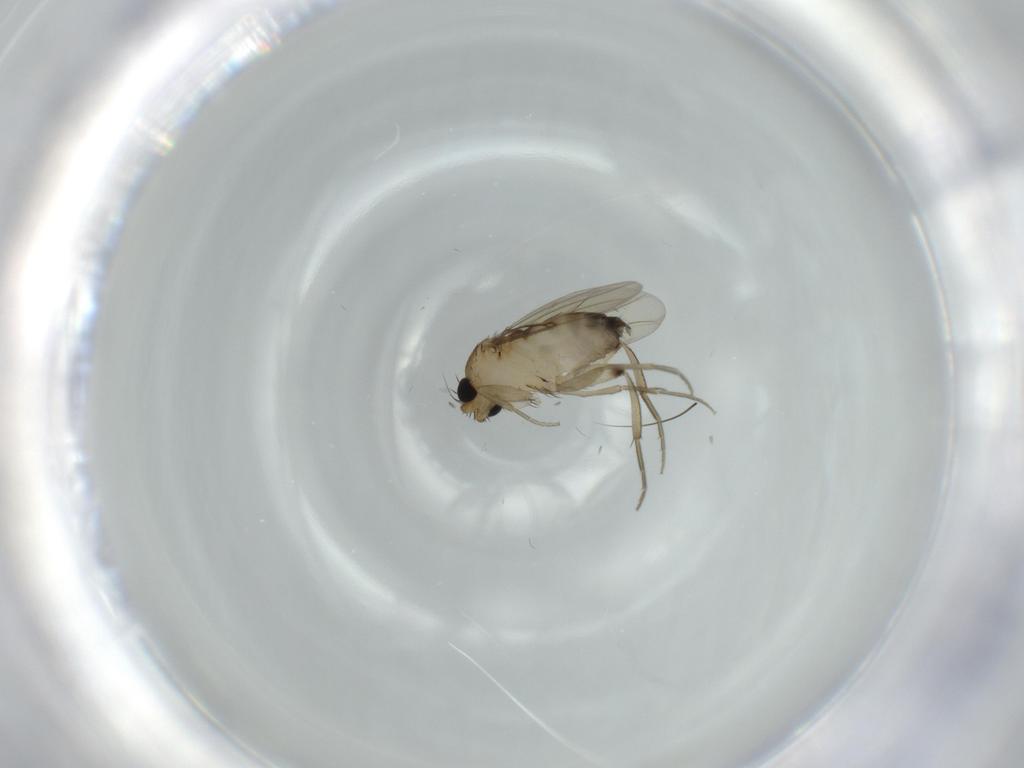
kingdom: Animalia
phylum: Arthropoda
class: Insecta
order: Diptera
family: Phoridae
